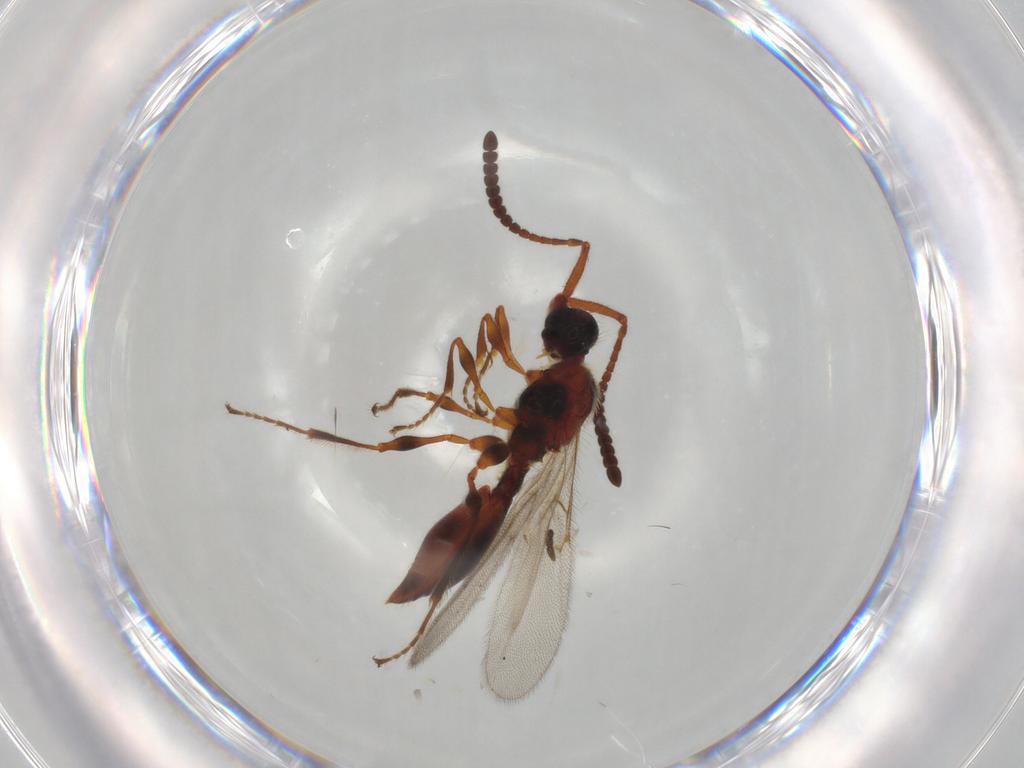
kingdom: Animalia
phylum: Arthropoda
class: Insecta
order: Hymenoptera
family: Diapriidae
